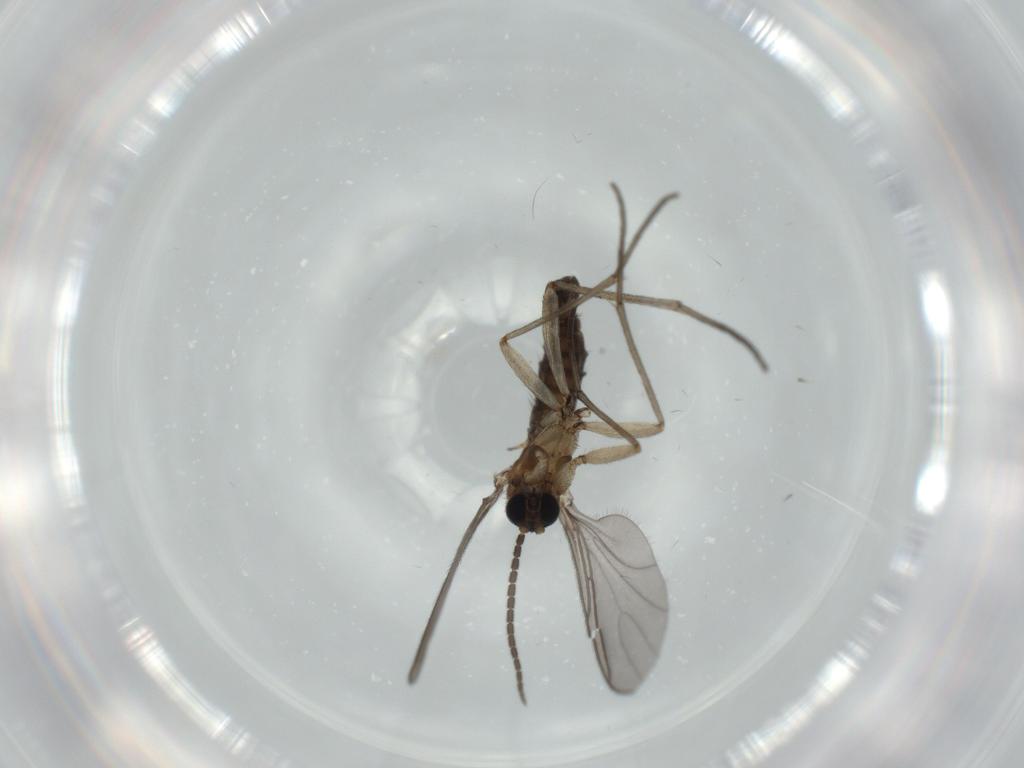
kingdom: Animalia
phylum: Arthropoda
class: Insecta
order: Diptera
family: Sciaridae
